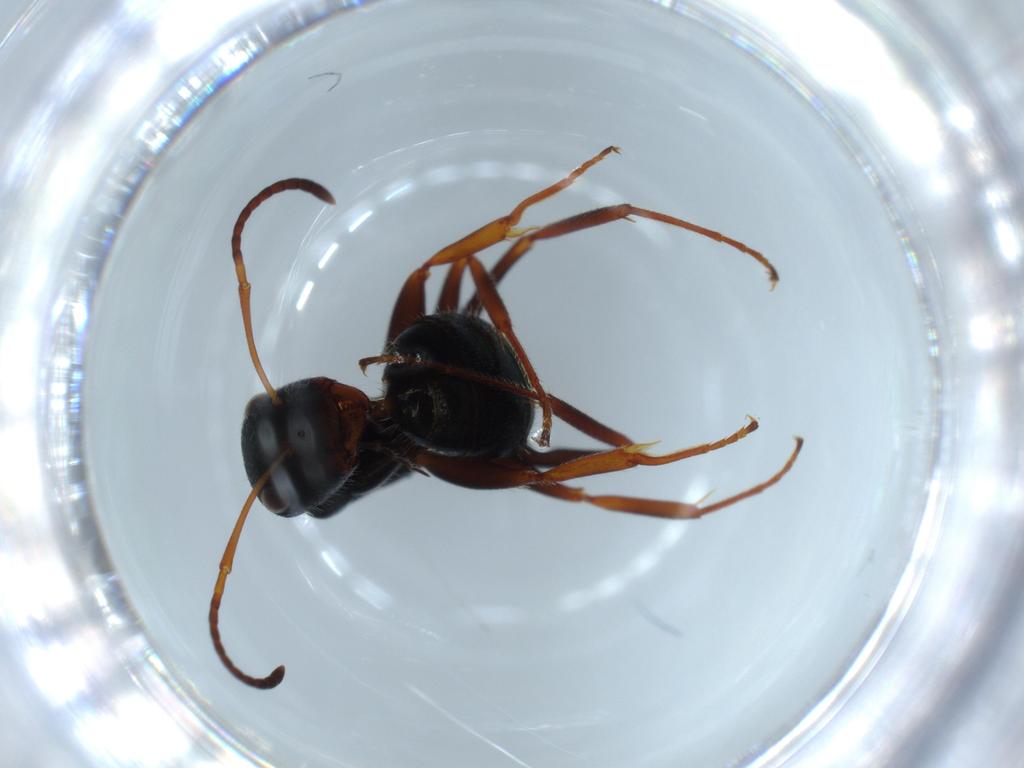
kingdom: Animalia
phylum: Arthropoda
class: Insecta
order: Hymenoptera
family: Formicidae
